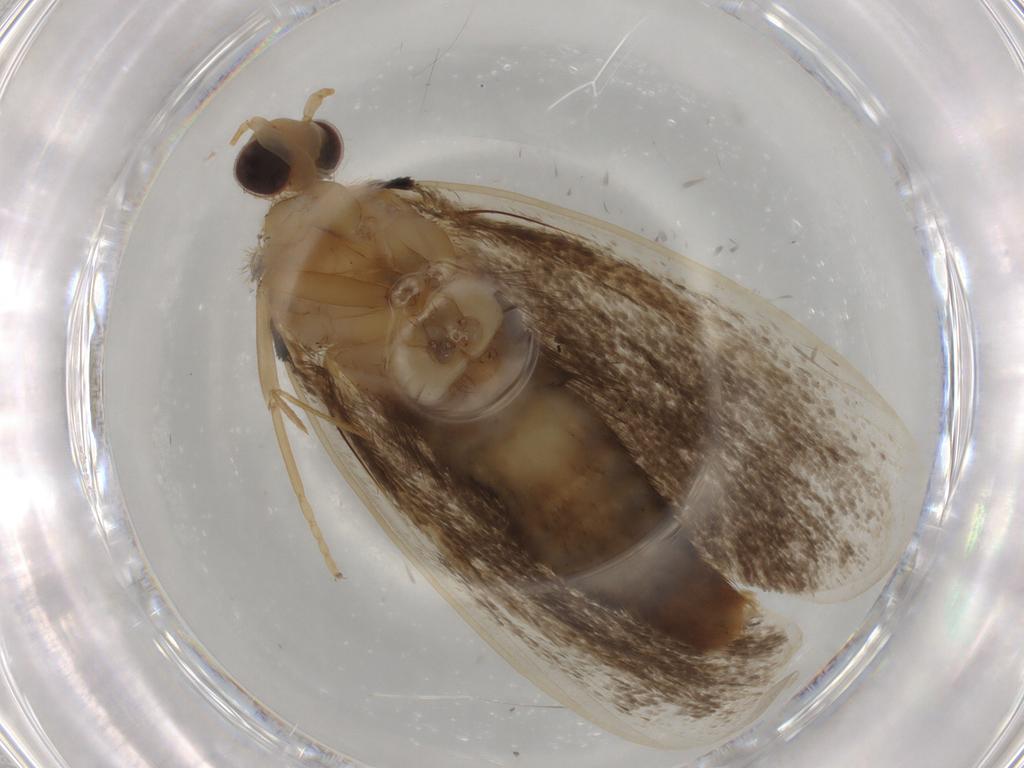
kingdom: Animalia
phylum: Arthropoda
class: Insecta
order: Lepidoptera
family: Tineidae
